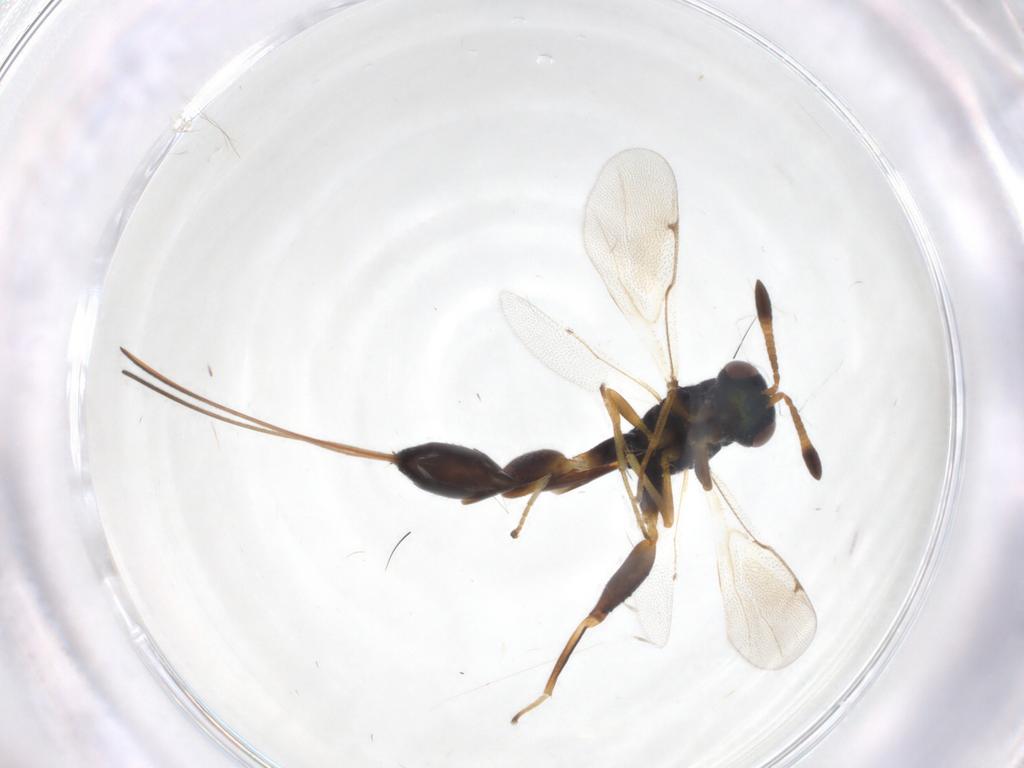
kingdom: Animalia
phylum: Arthropoda
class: Insecta
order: Hymenoptera
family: Torymidae
